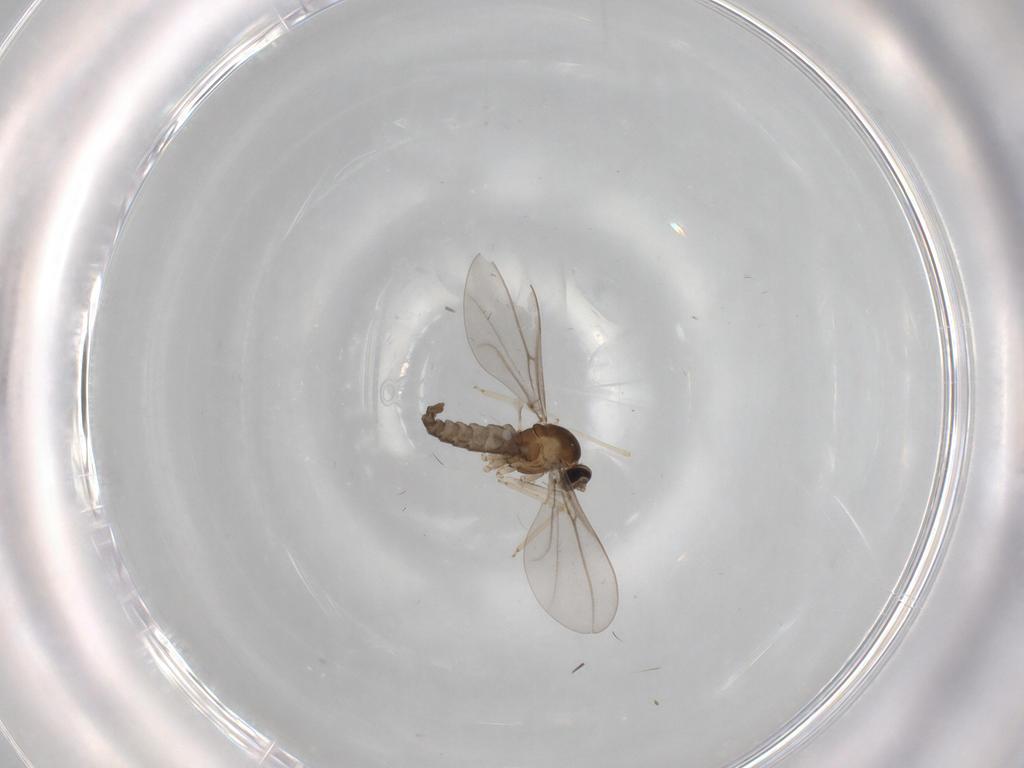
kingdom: Animalia
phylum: Arthropoda
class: Insecta
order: Diptera
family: Cecidomyiidae
